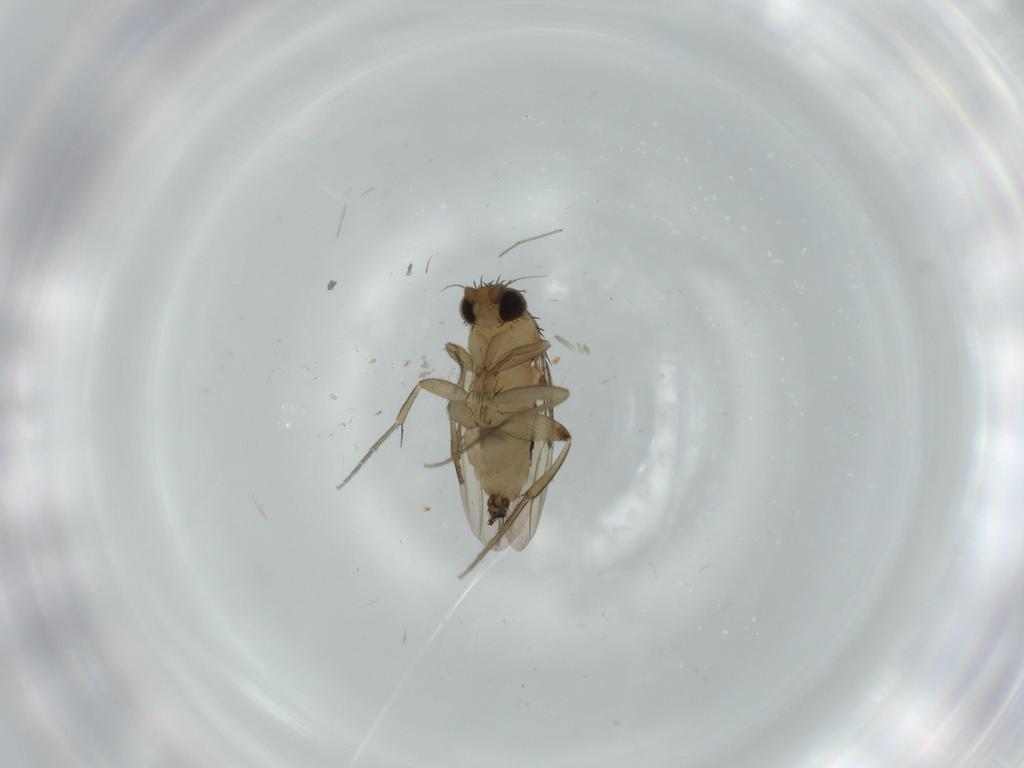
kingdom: Animalia
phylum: Arthropoda
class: Insecta
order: Diptera
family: Phoridae
